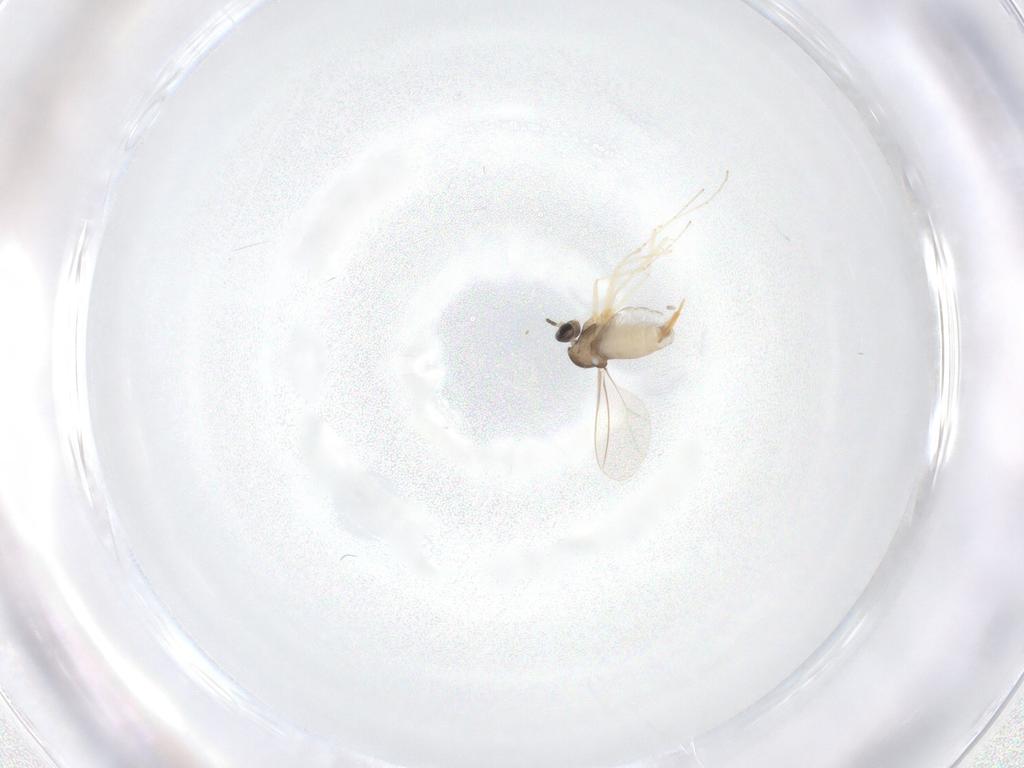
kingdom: Animalia
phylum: Arthropoda
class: Insecta
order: Diptera
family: Cecidomyiidae
